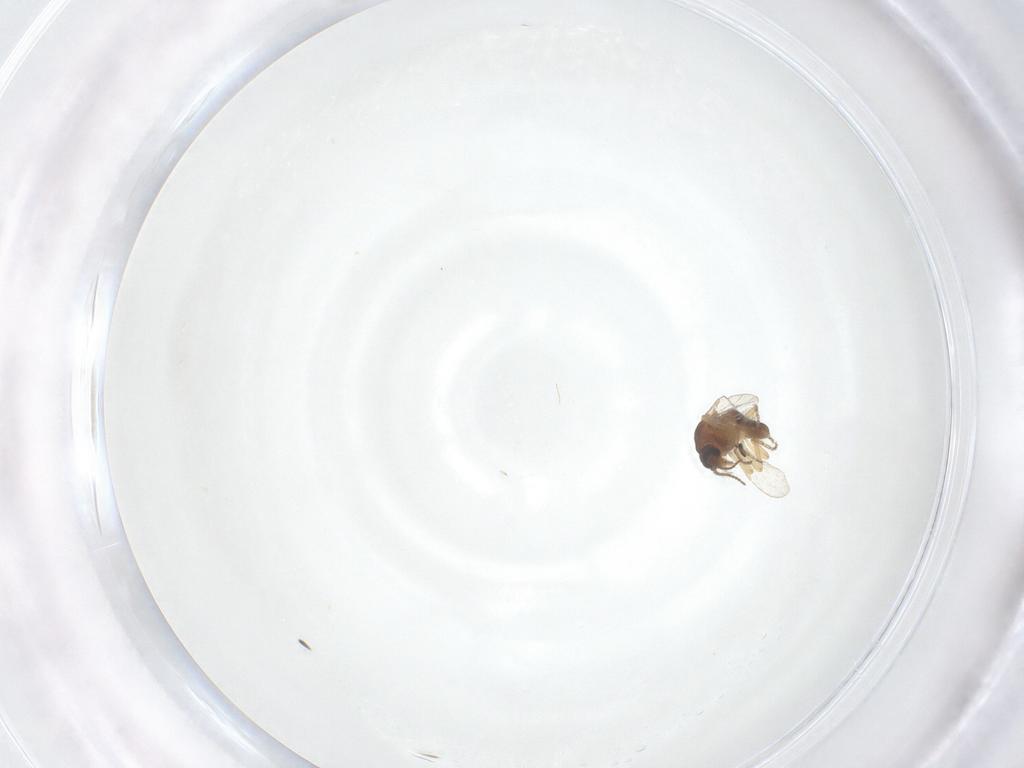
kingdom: Animalia
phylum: Arthropoda
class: Insecta
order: Diptera
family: Ceratopogonidae
